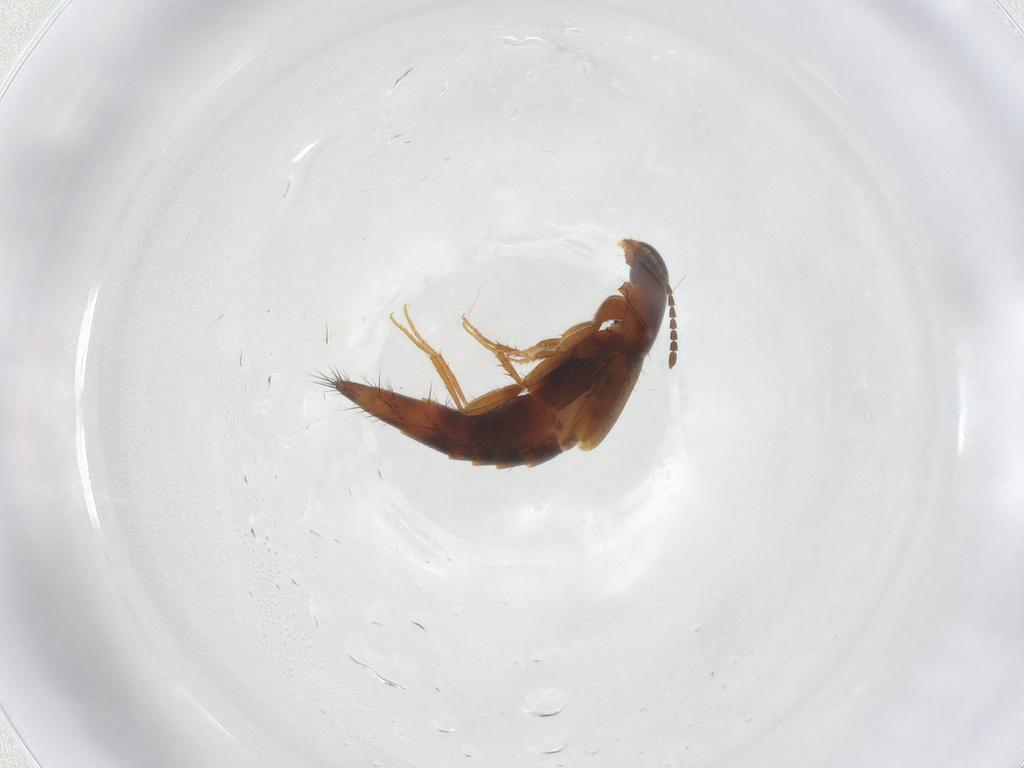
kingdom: Animalia
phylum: Arthropoda
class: Insecta
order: Coleoptera
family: Staphylinidae
